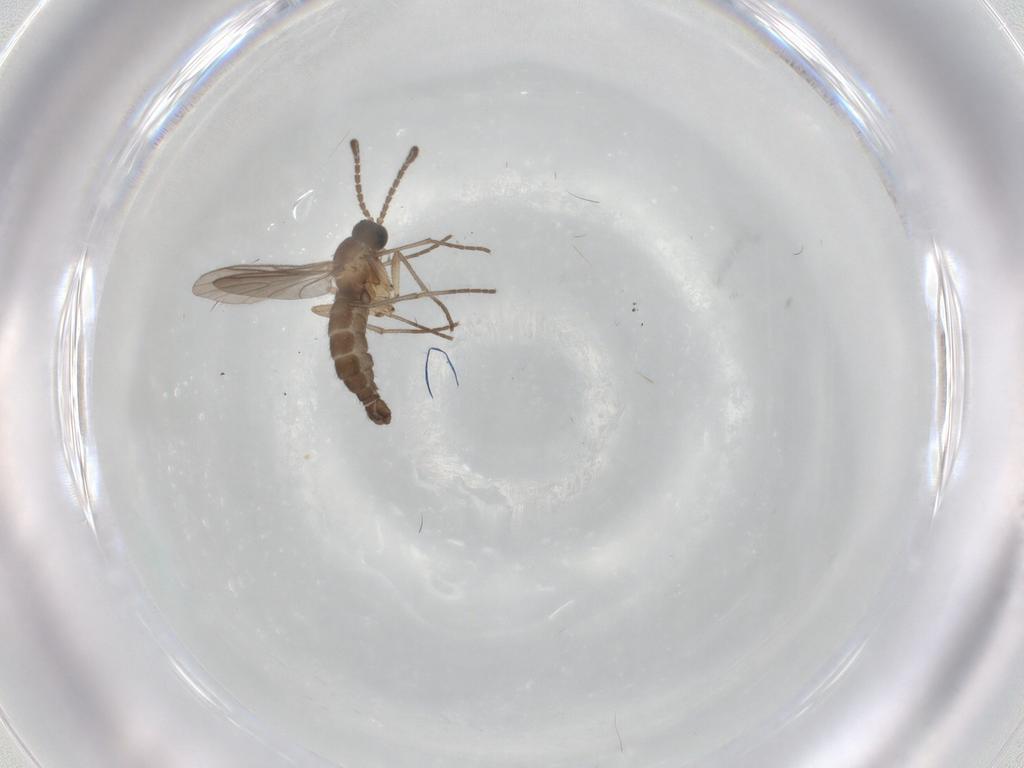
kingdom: Animalia
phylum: Arthropoda
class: Insecta
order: Diptera
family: Sciaridae
